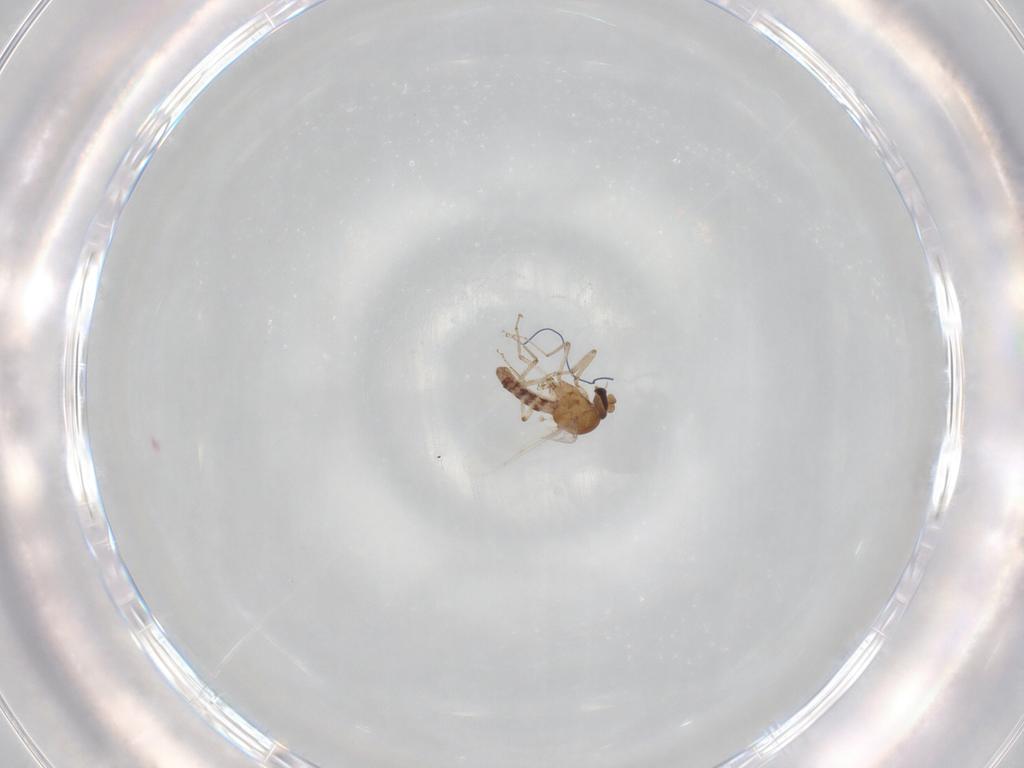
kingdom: Animalia
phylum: Arthropoda
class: Insecta
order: Diptera
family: Ceratopogonidae
